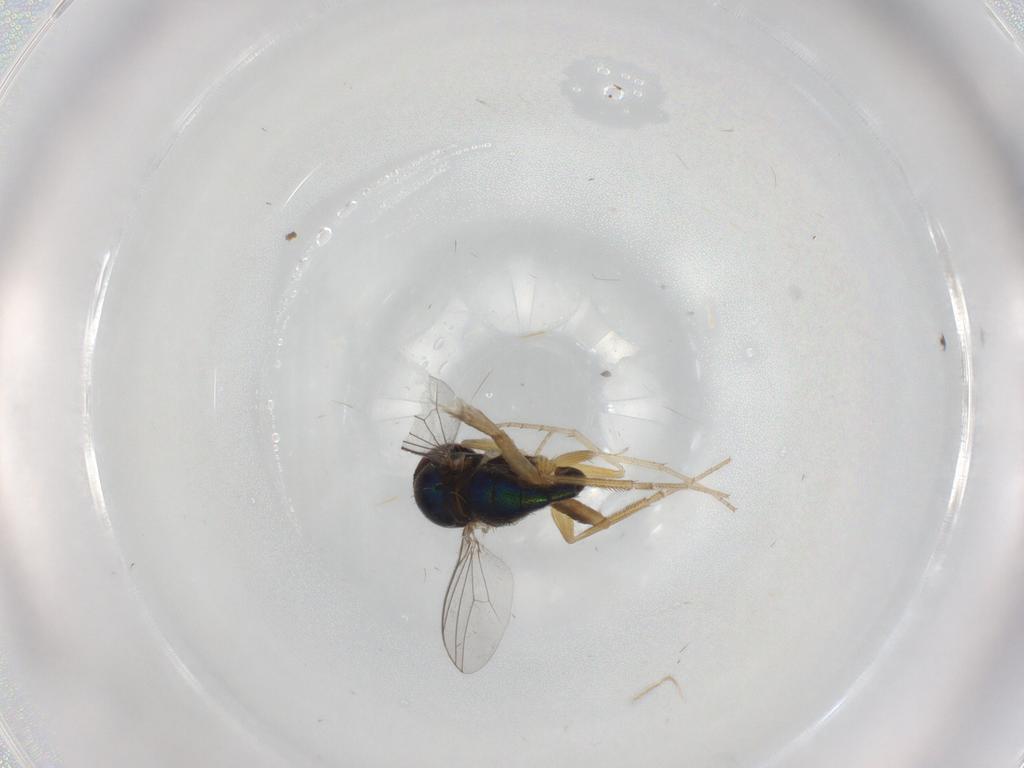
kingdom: Animalia
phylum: Arthropoda
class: Insecta
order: Diptera
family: Dolichopodidae
